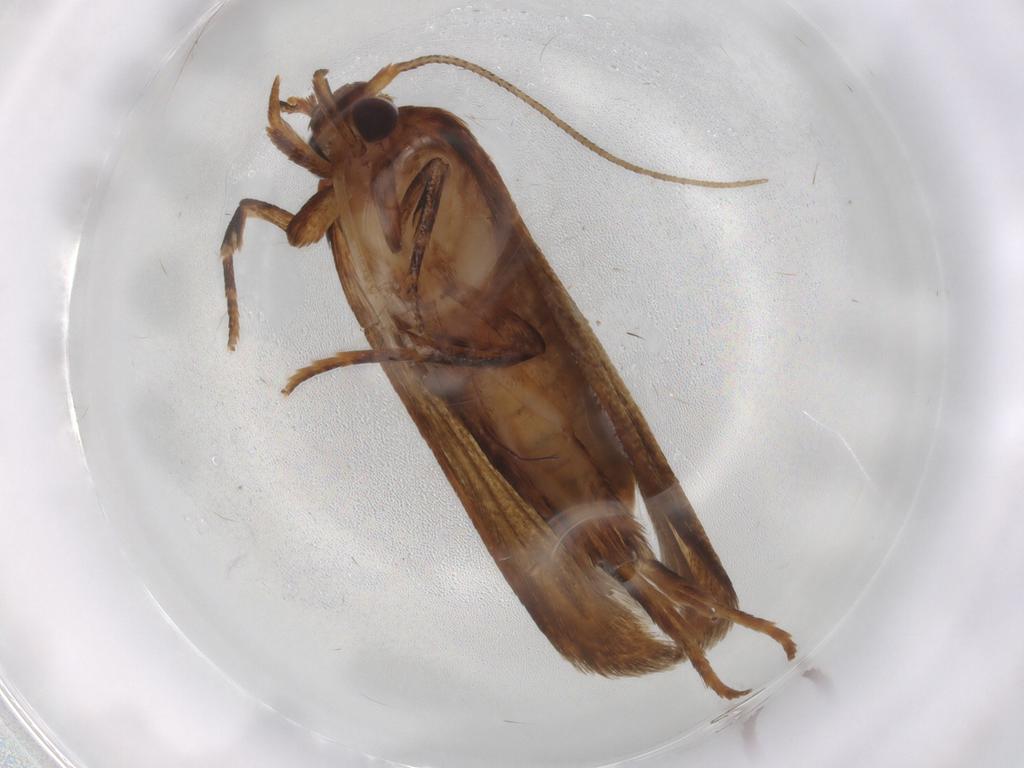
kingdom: Animalia
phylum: Arthropoda
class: Insecta
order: Lepidoptera
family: Blastobasidae
